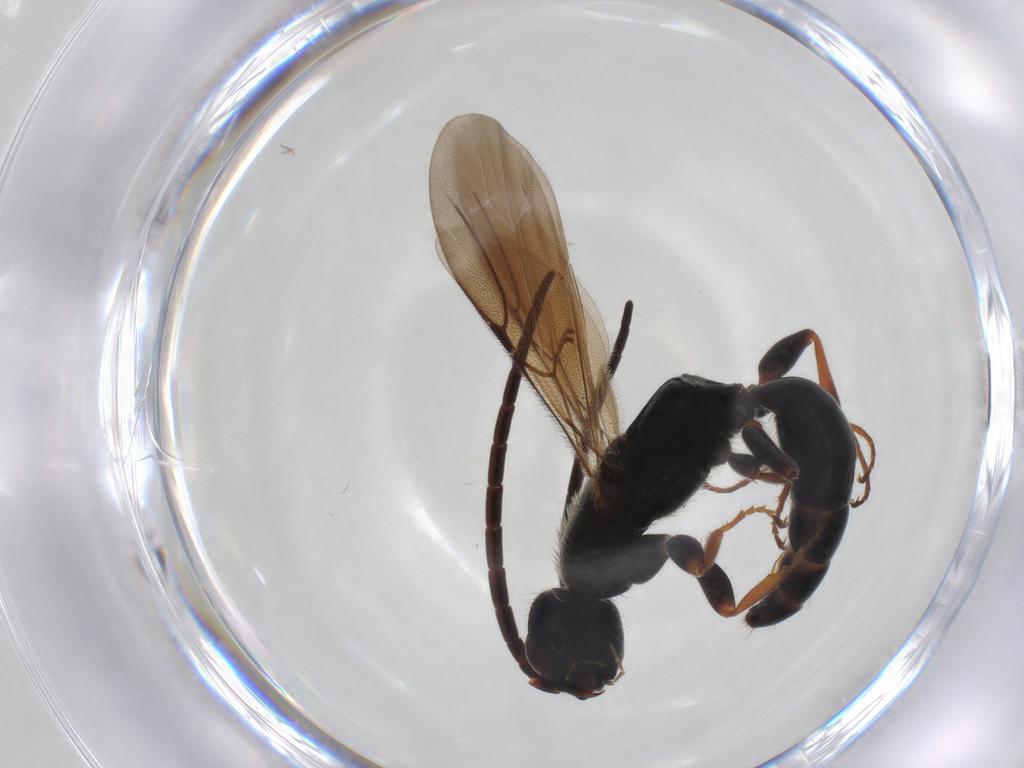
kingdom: Animalia
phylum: Arthropoda
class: Insecta
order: Hymenoptera
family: Bethylidae
